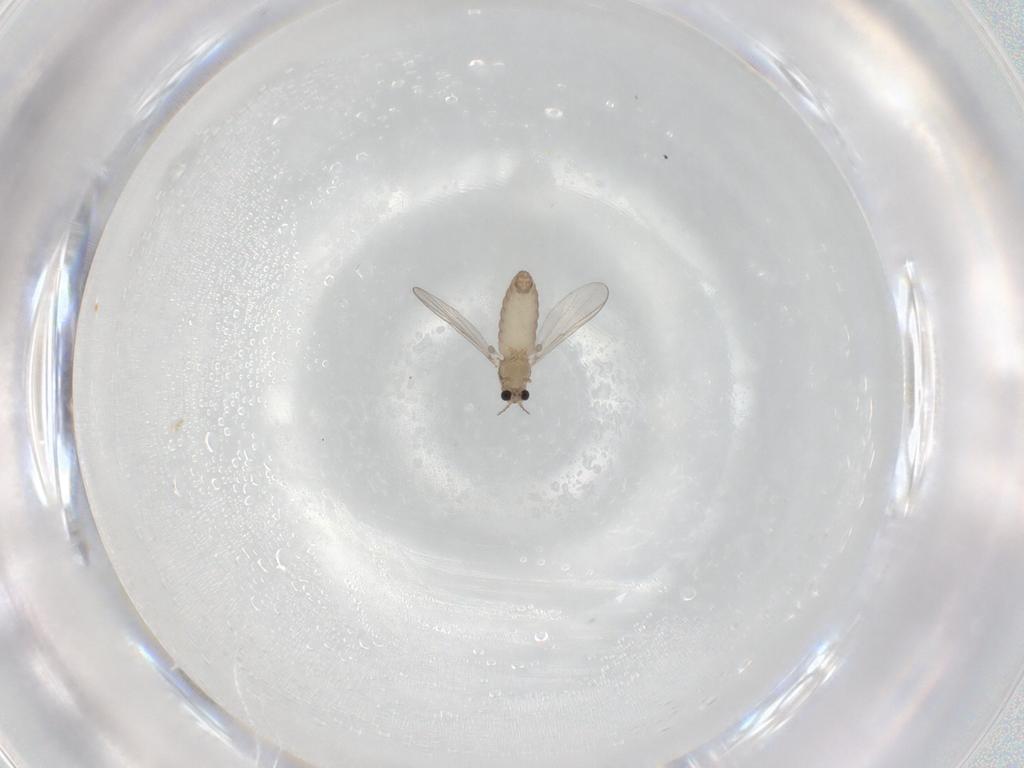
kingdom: Animalia
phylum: Arthropoda
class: Insecta
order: Diptera
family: Chironomidae
